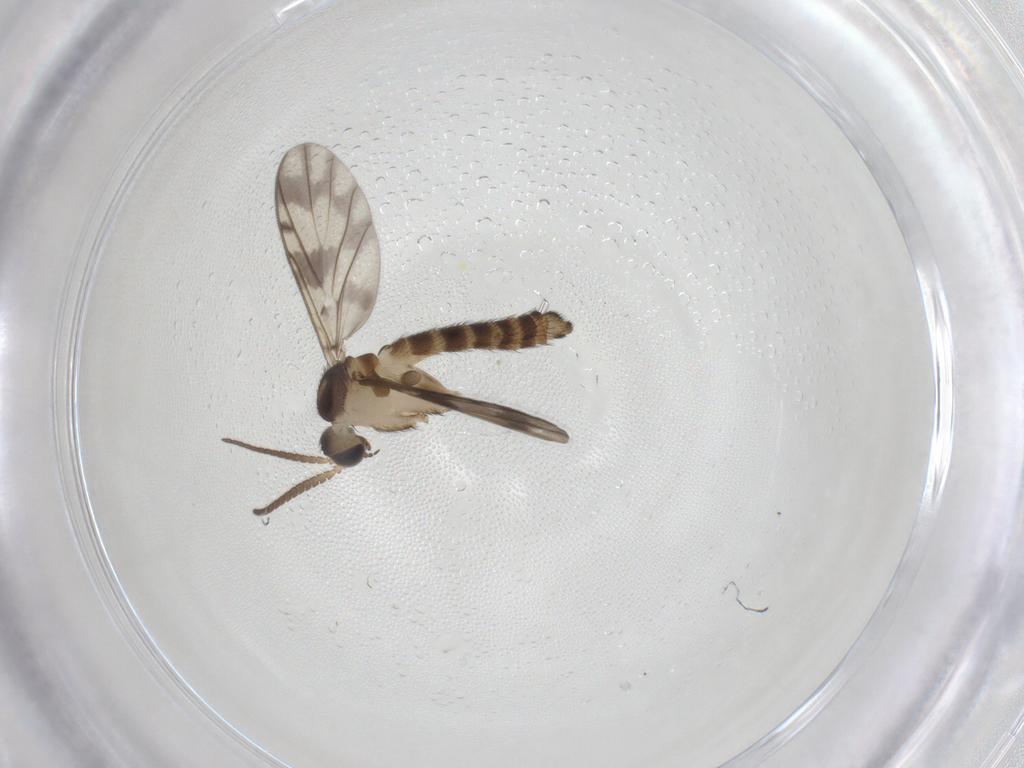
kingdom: Animalia
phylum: Arthropoda
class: Insecta
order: Diptera
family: Keroplatidae
